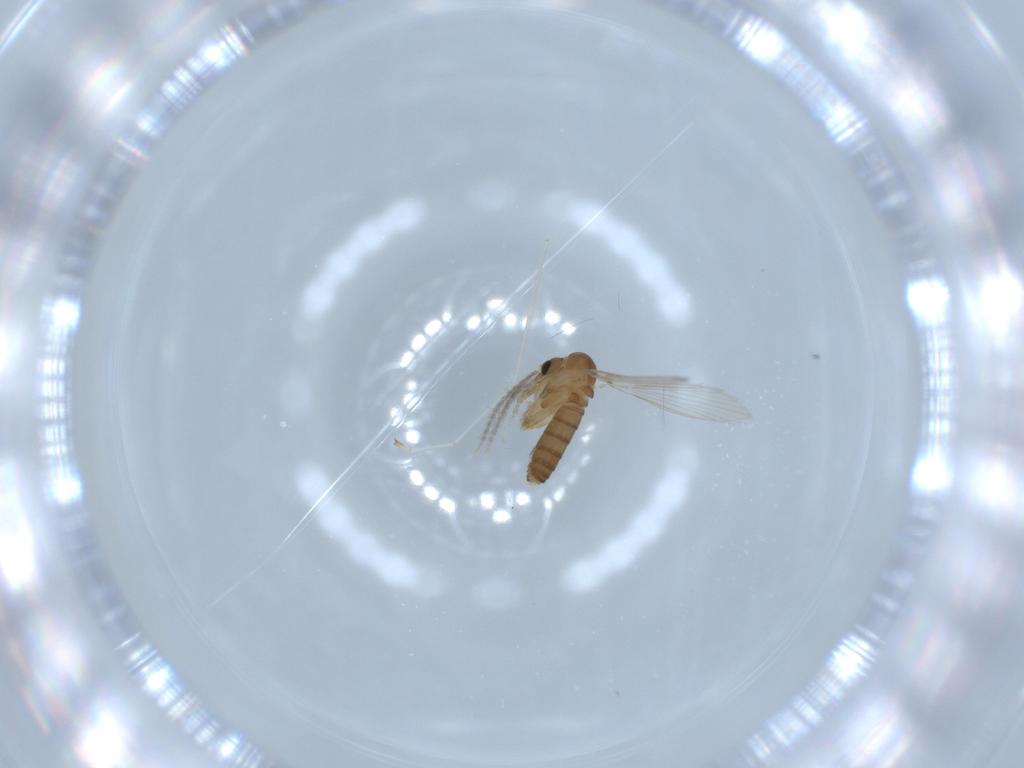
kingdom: Animalia
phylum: Arthropoda
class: Insecta
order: Diptera
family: Psychodidae
